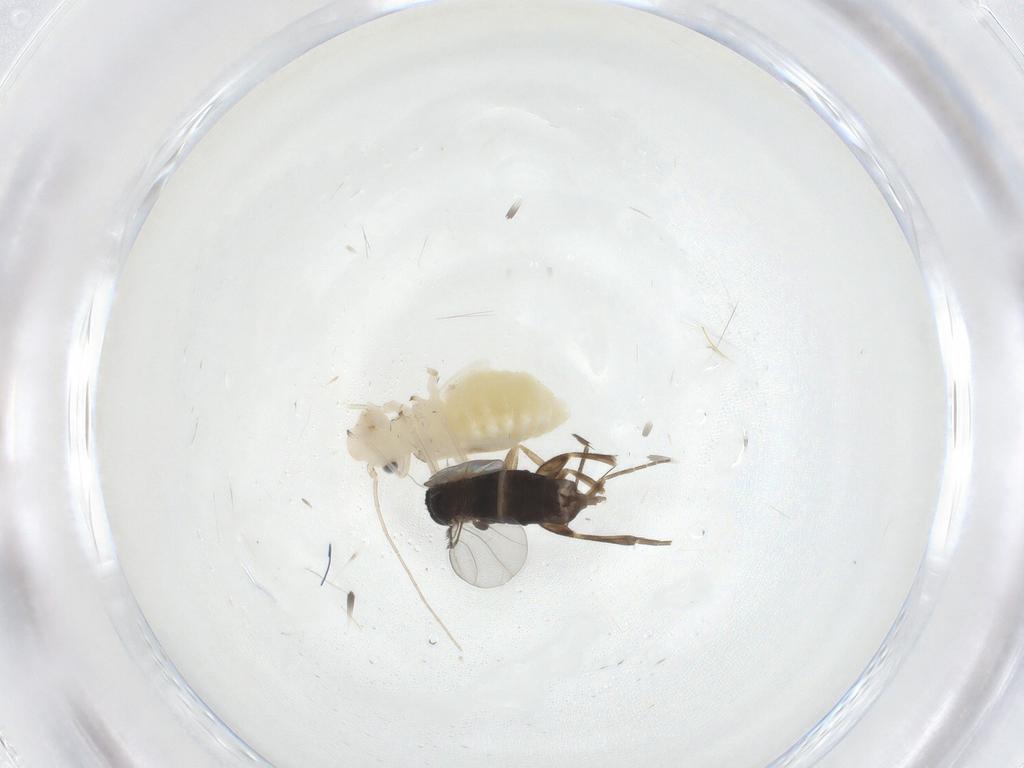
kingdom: Animalia
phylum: Arthropoda
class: Insecta
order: Diptera
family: Phoridae
